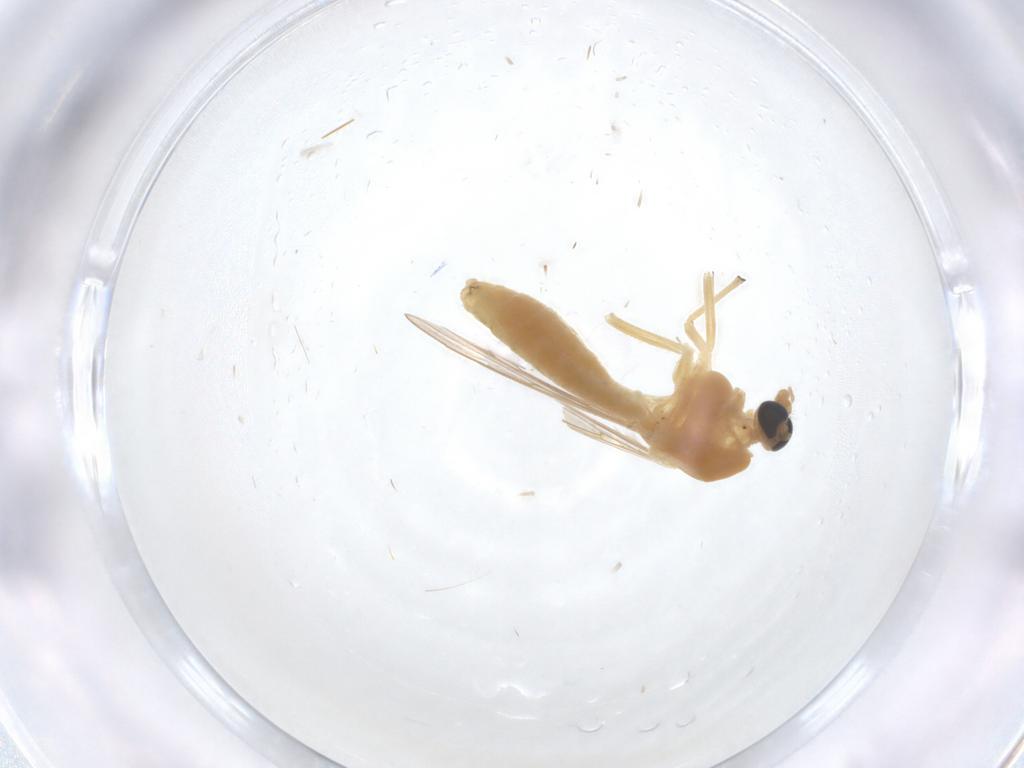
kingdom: Animalia
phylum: Arthropoda
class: Insecta
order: Diptera
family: Chironomidae
